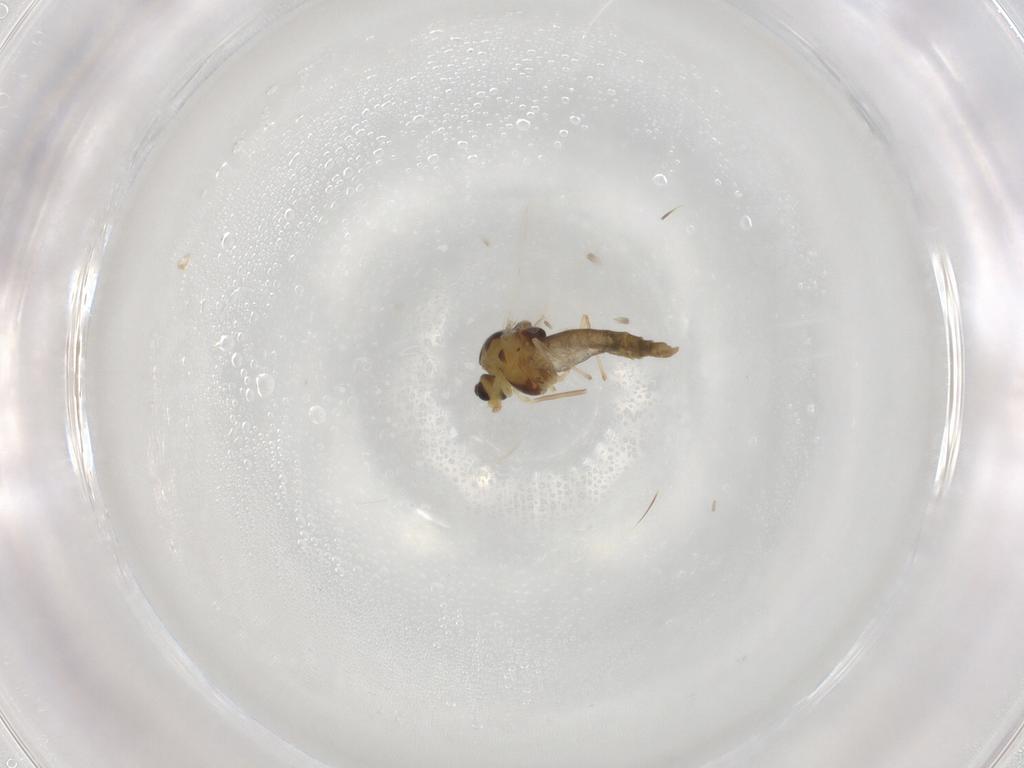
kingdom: Animalia
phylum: Arthropoda
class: Insecta
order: Diptera
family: Chironomidae
